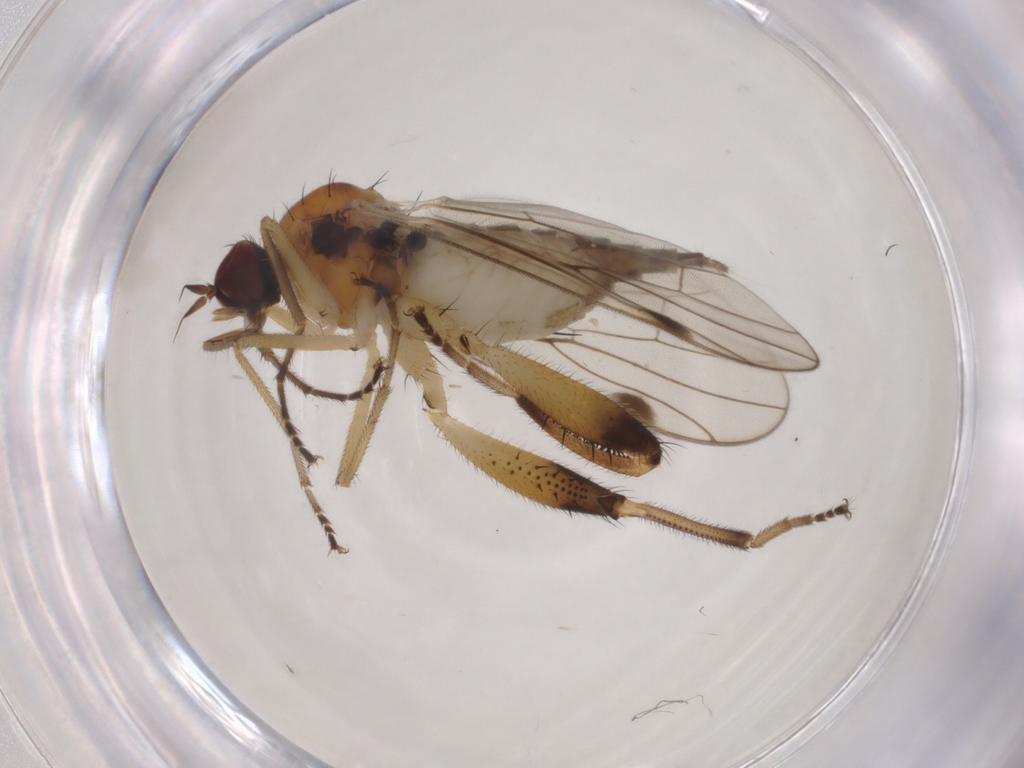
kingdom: Animalia
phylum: Arthropoda
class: Insecta
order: Diptera
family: Hybotidae
